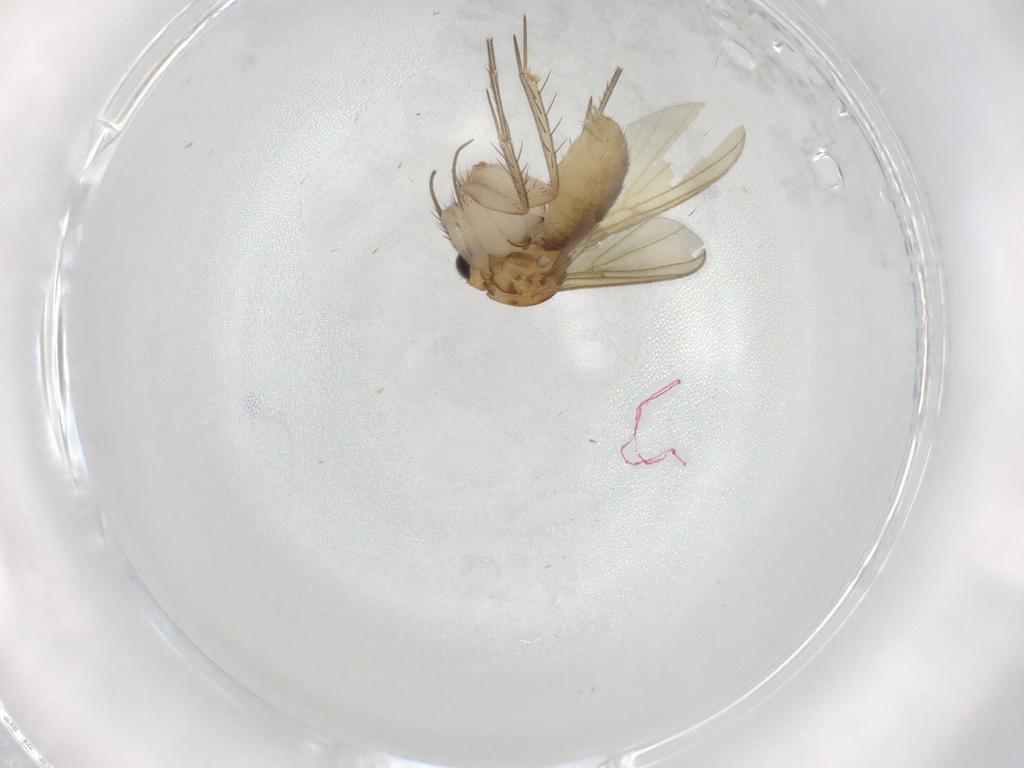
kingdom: Animalia
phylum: Arthropoda
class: Insecta
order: Diptera
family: Mycetophilidae
